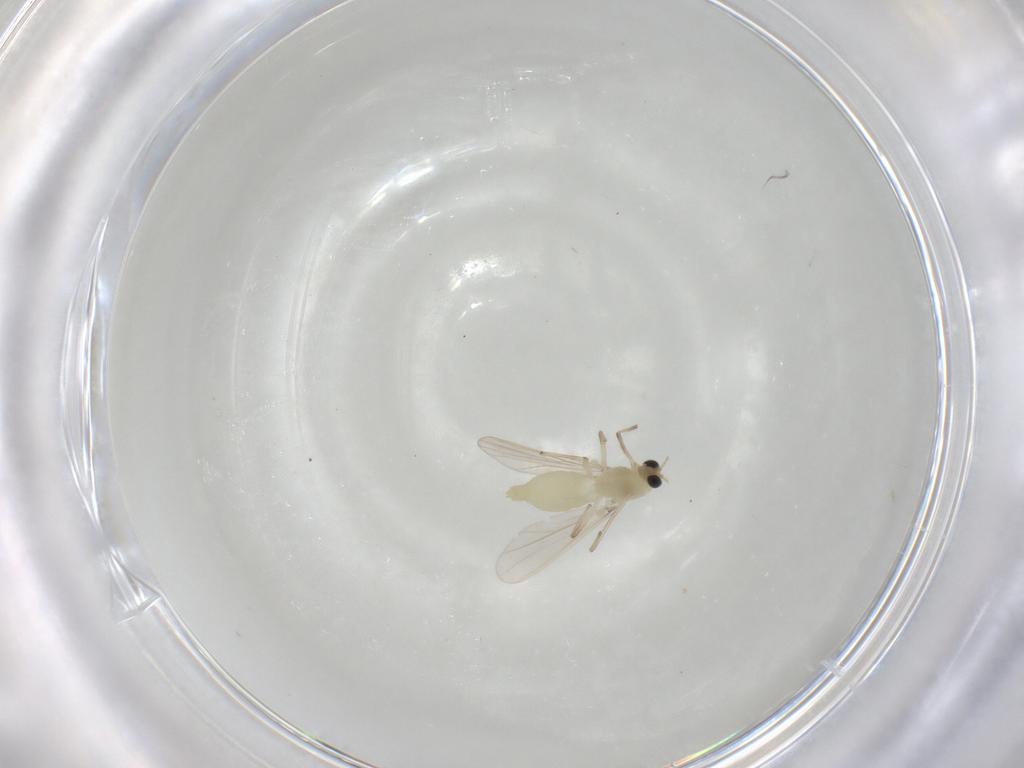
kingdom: Animalia
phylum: Arthropoda
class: Insecta
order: Diptera
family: Chironomidae
